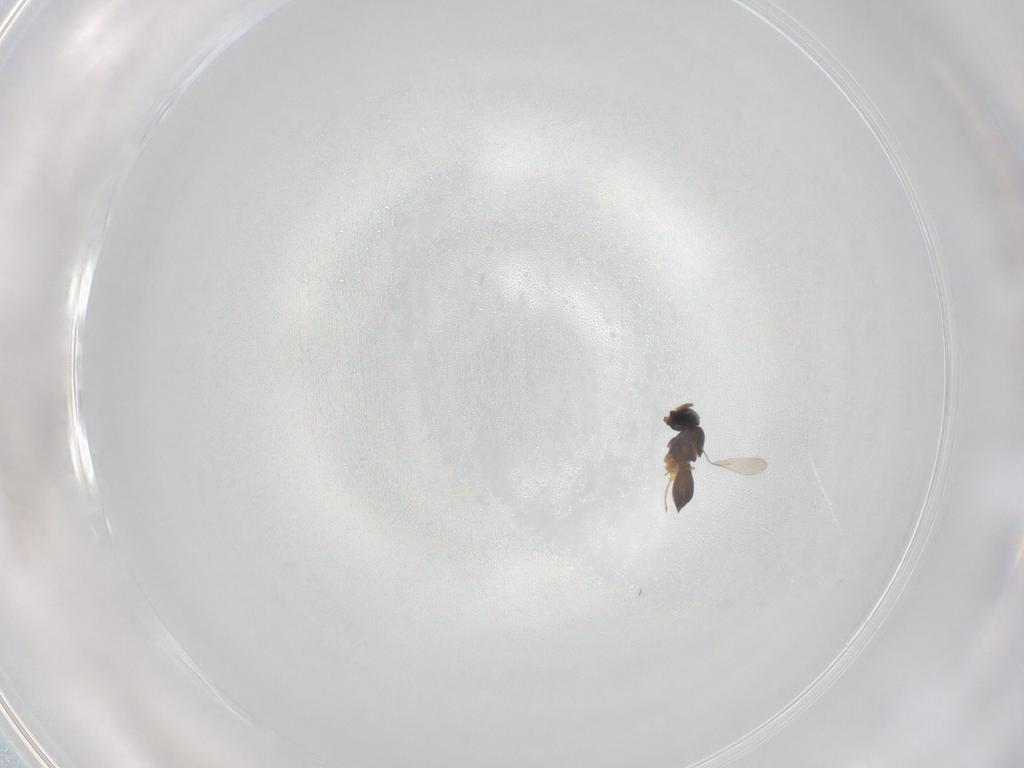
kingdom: Animalia
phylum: Arthropoda
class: Insecta
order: Hymenoptera
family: Scelionidae
